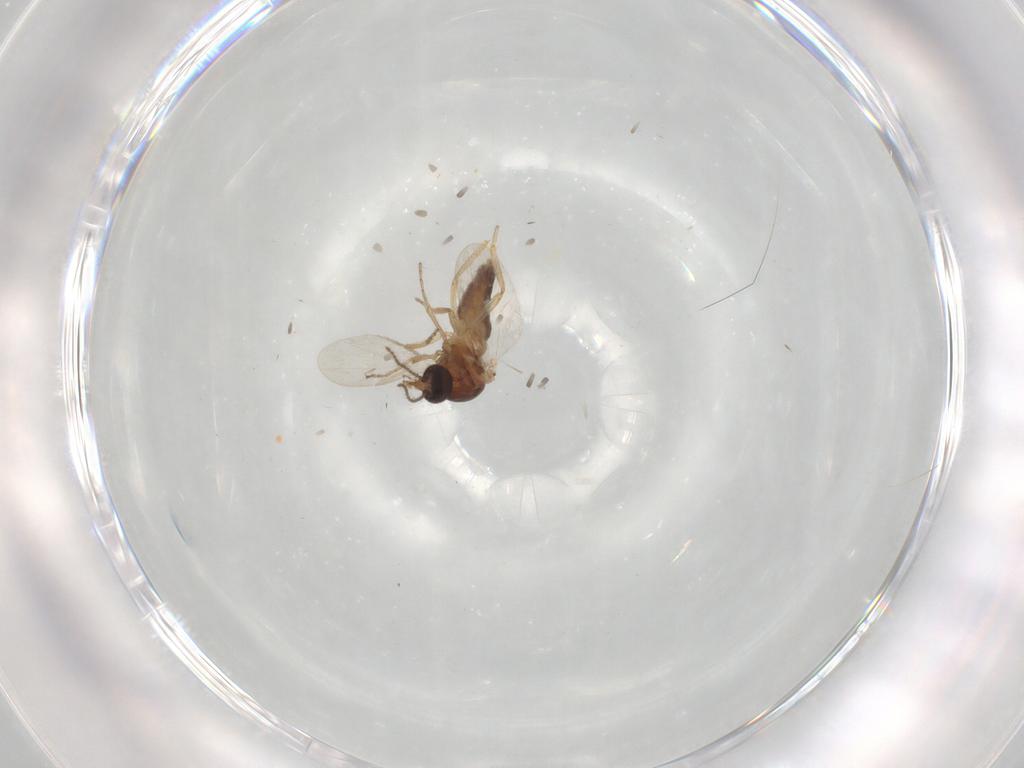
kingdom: Animalia
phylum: Arthropoda
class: Insecta
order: Diptera
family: Ceratopogonidae
